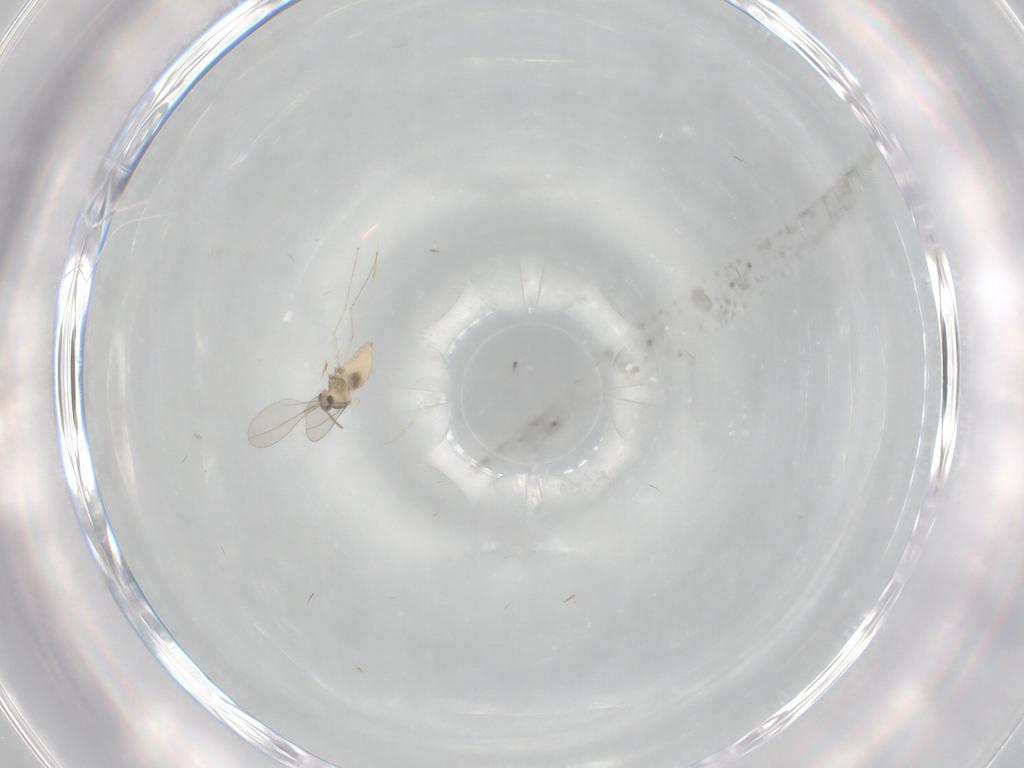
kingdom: Animalia
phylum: Arthropoda
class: Insecta
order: Diptera
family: Cecidomyiidae
